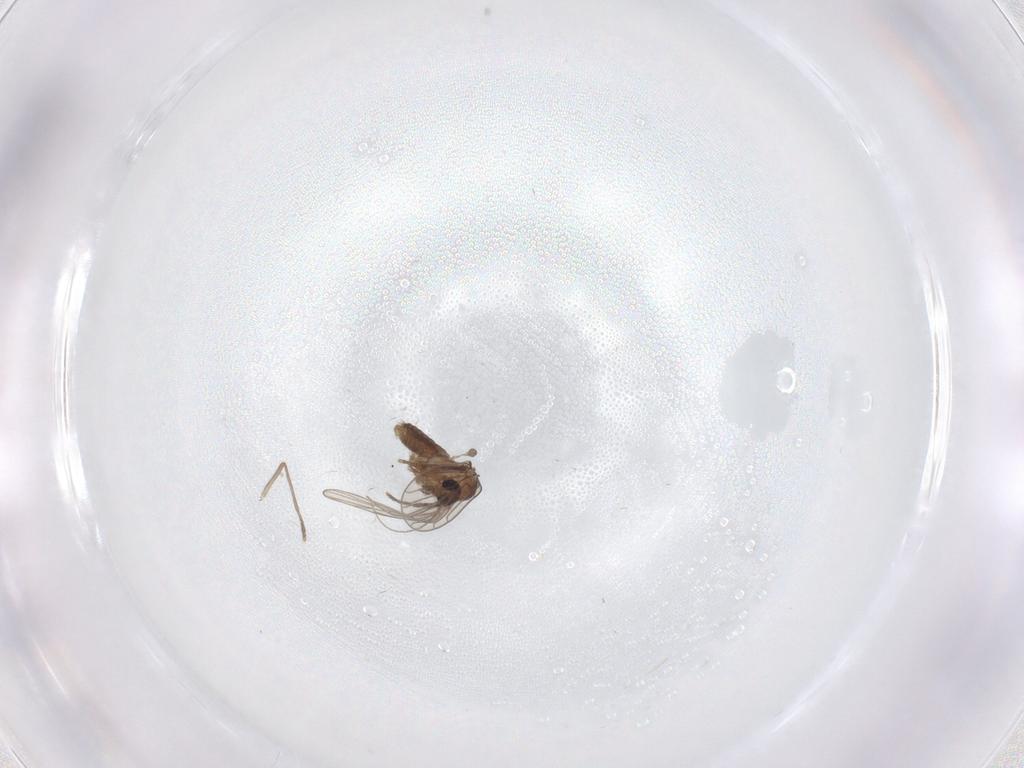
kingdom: Animalia
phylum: Arthropoda
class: Insecta
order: Diptera
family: Psychodidae
